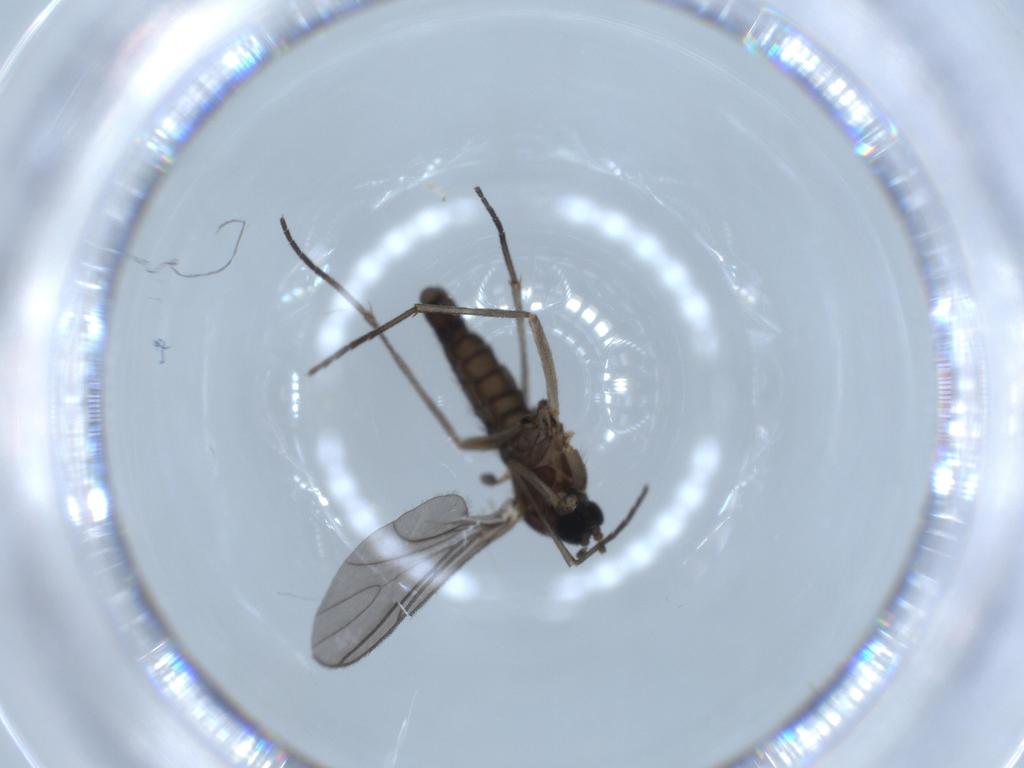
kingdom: Animalia
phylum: Arthropoda
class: Insecta
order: Diptera
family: Sciaridae
